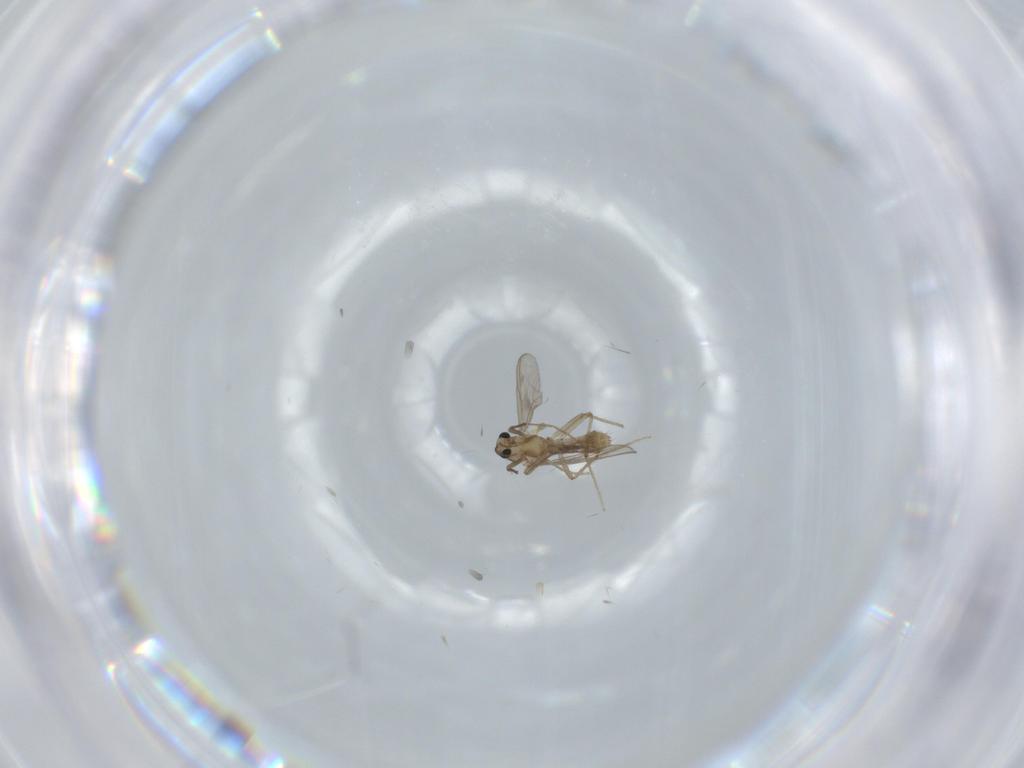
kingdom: Animalia
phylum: Arthropoda
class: Insecta
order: Diptera
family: Chironomidae
